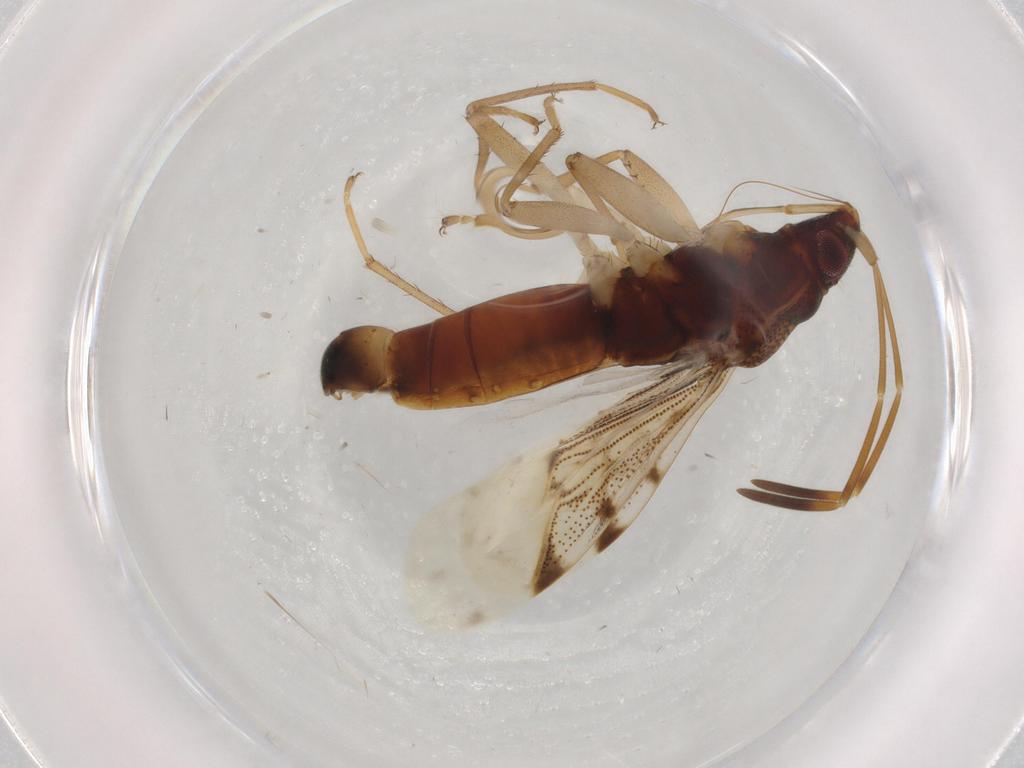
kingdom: Animalia
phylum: Arthropoda
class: Insecta
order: Hemiptera
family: Rhyparochromidae
